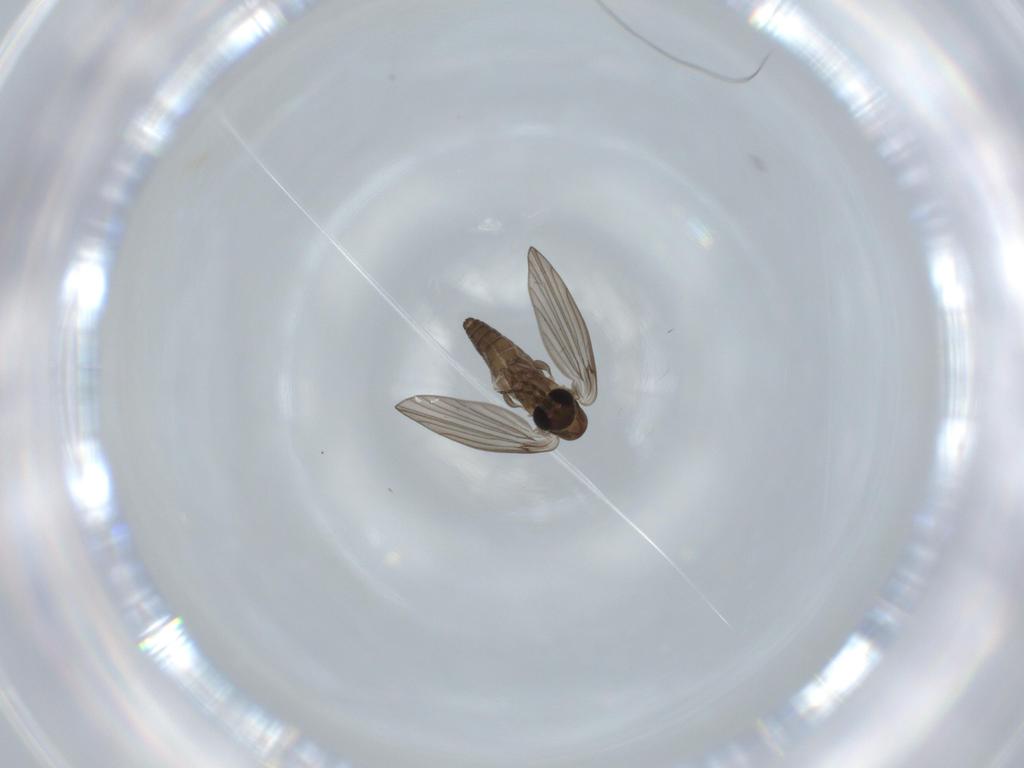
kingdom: Animalia
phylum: Arthropoda
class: Insecta
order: Diptera
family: Psychodidae
